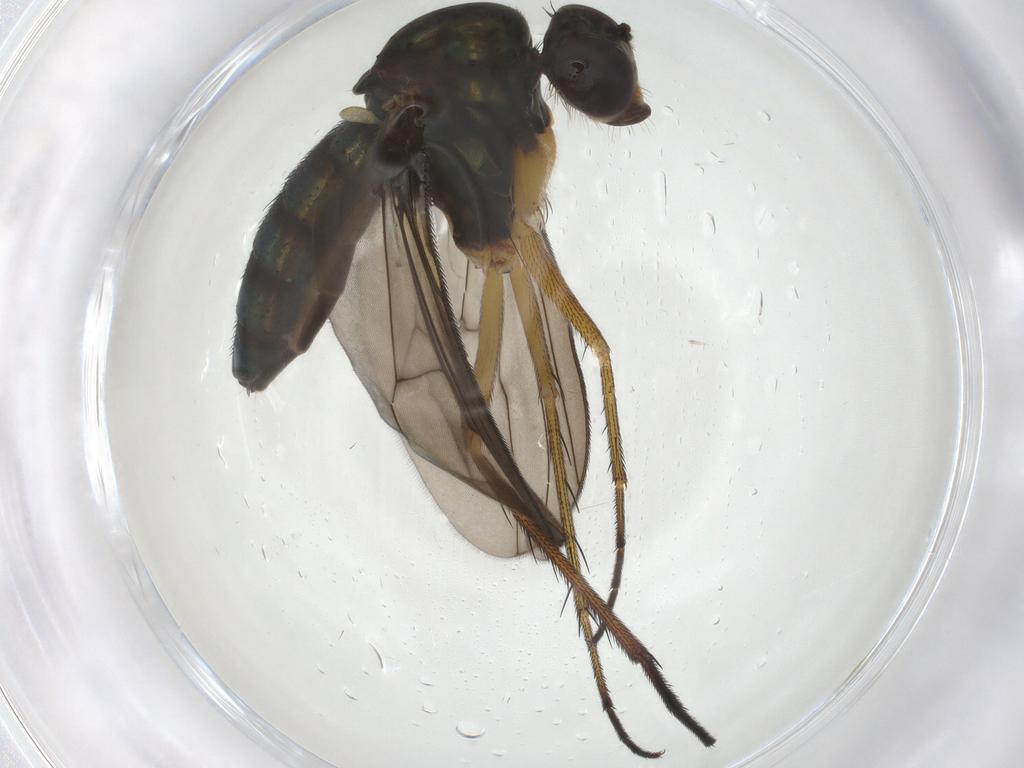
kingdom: Animalia
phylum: Arthropoda
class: Insecta
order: Diptera
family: Dolichopodidae
